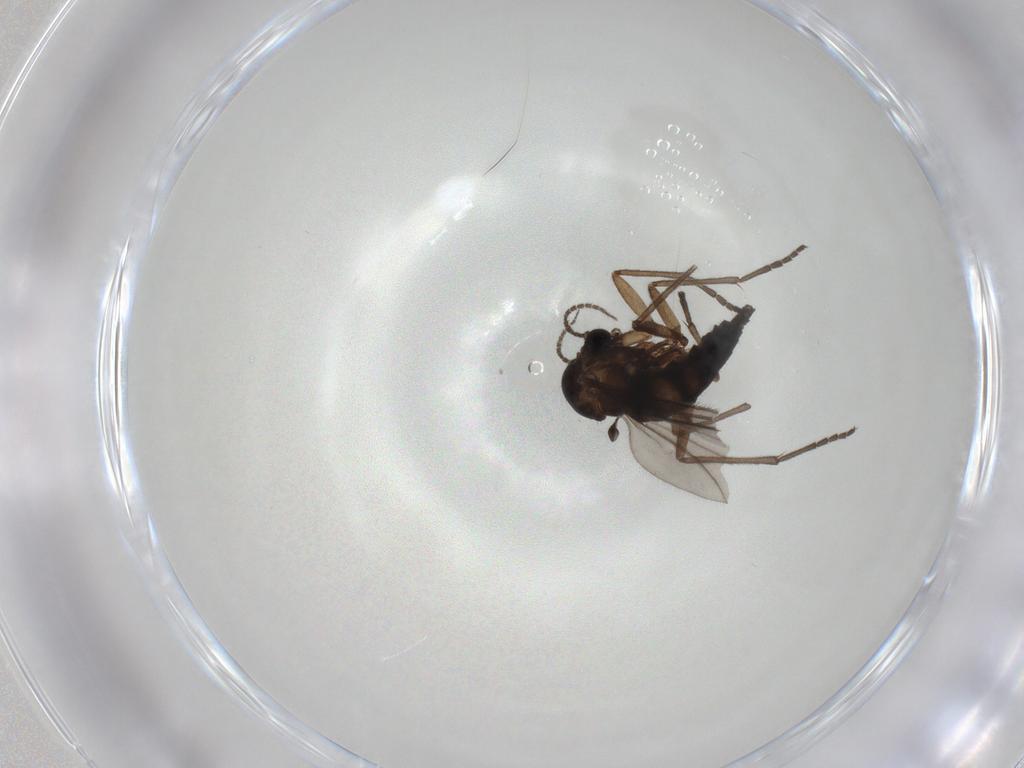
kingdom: Animalia
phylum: Arthropoda
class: Insecta
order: Diptera
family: Sciaridae
